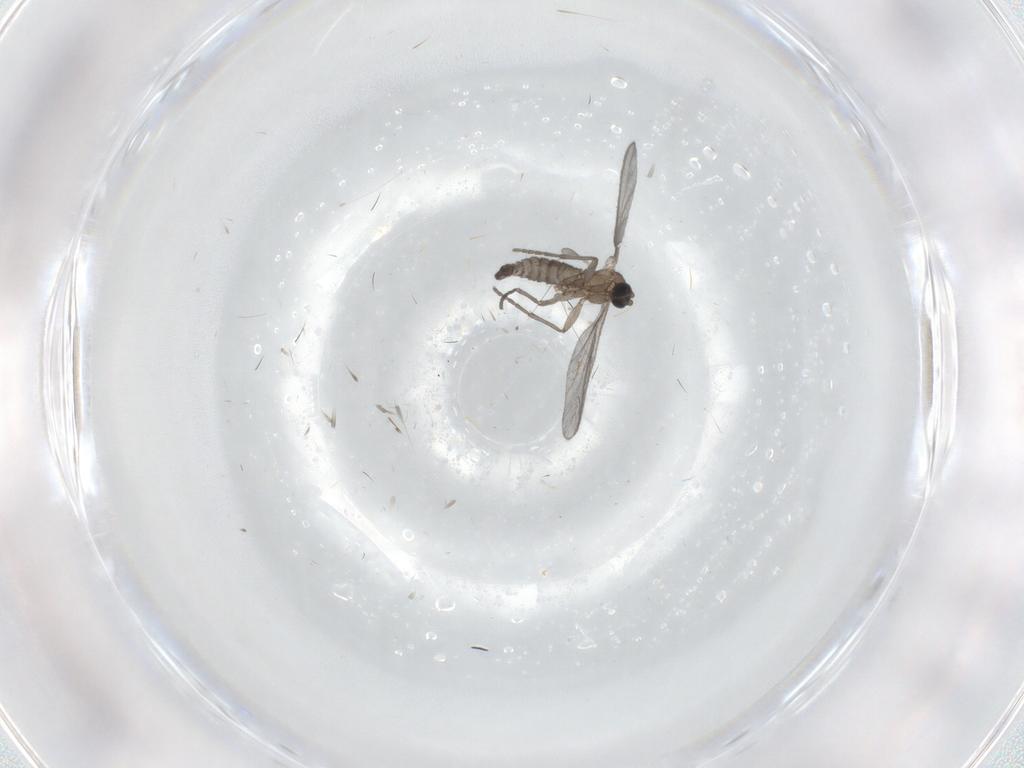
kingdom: Animalia
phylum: Arthropoda
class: Insecta
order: Diptera
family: Sciaridae
